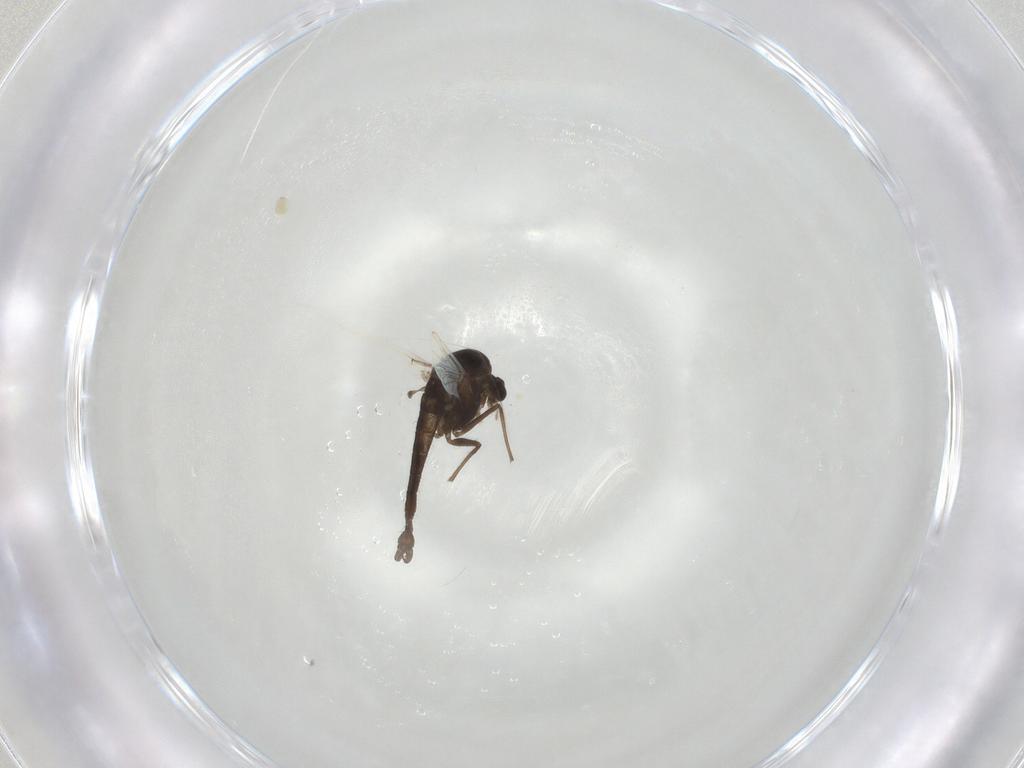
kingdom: Animalia
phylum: Arthropoda
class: Insecta
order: Diptera
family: Chironomidae
